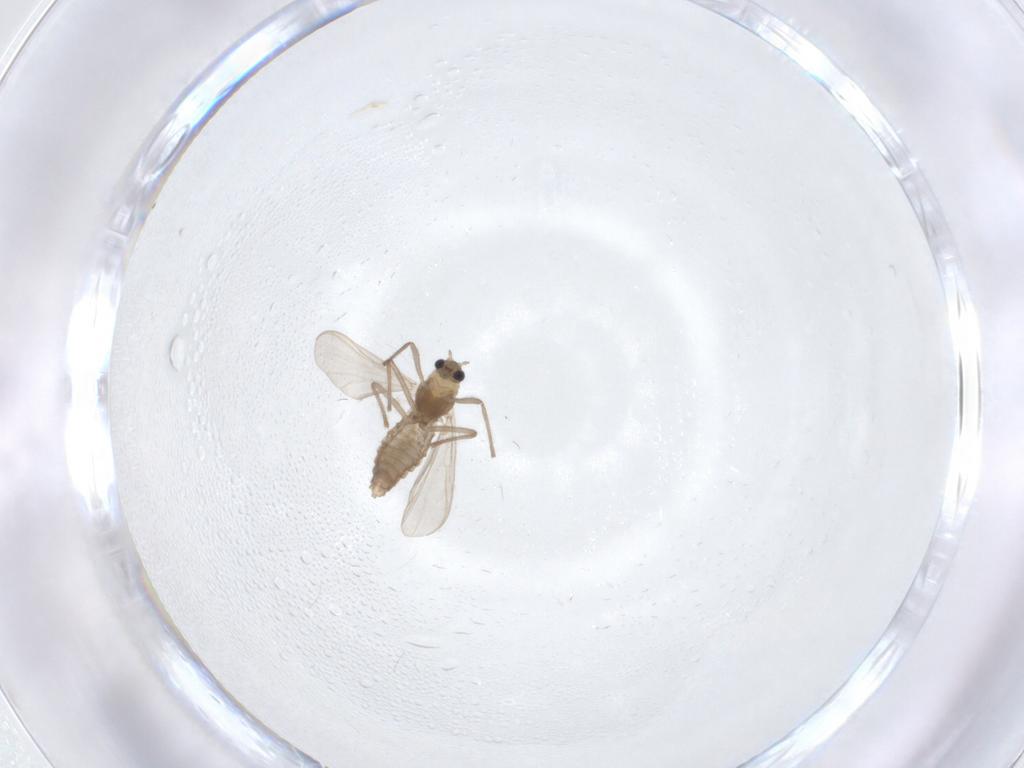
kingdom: Animalia
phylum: Arthropoda
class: Insecta
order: Diptera
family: Chironomidae
